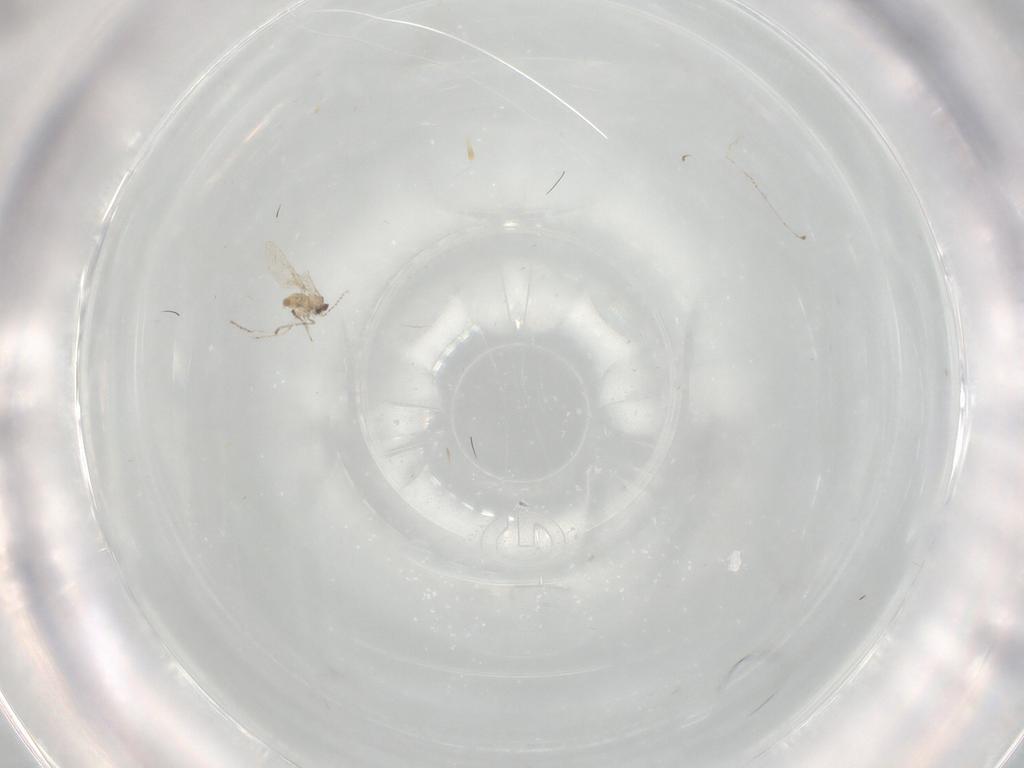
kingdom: Animalia
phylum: Arthropoda
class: Insecta
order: Diptera
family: Cecidomyiidae
